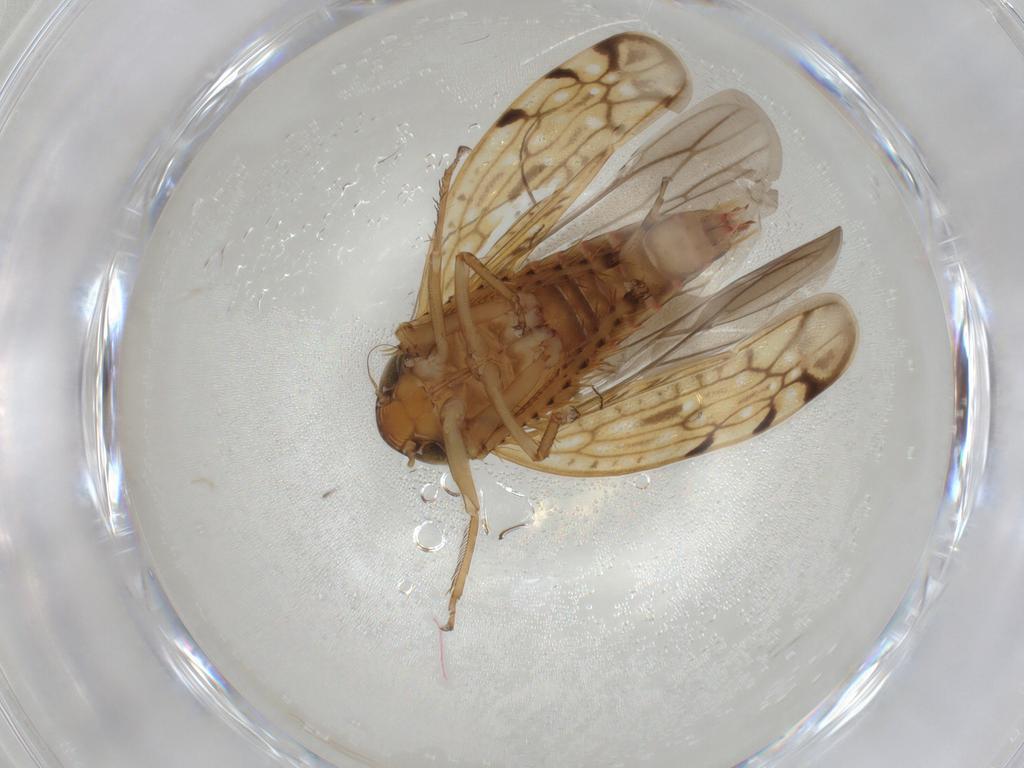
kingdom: Animalia
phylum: Arthropoda
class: Insecta
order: Hemiptera
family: Cicadellidae
